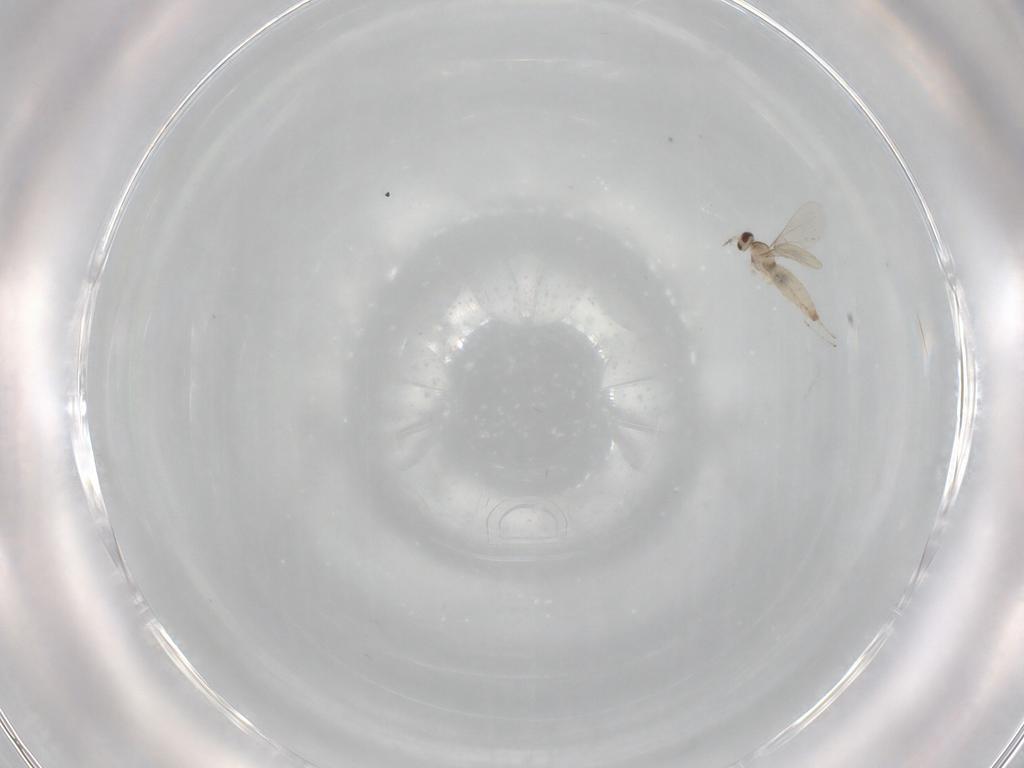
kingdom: Animalia
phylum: Arthropoda
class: Insecta
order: Diptera
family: Cecidomyiidae
